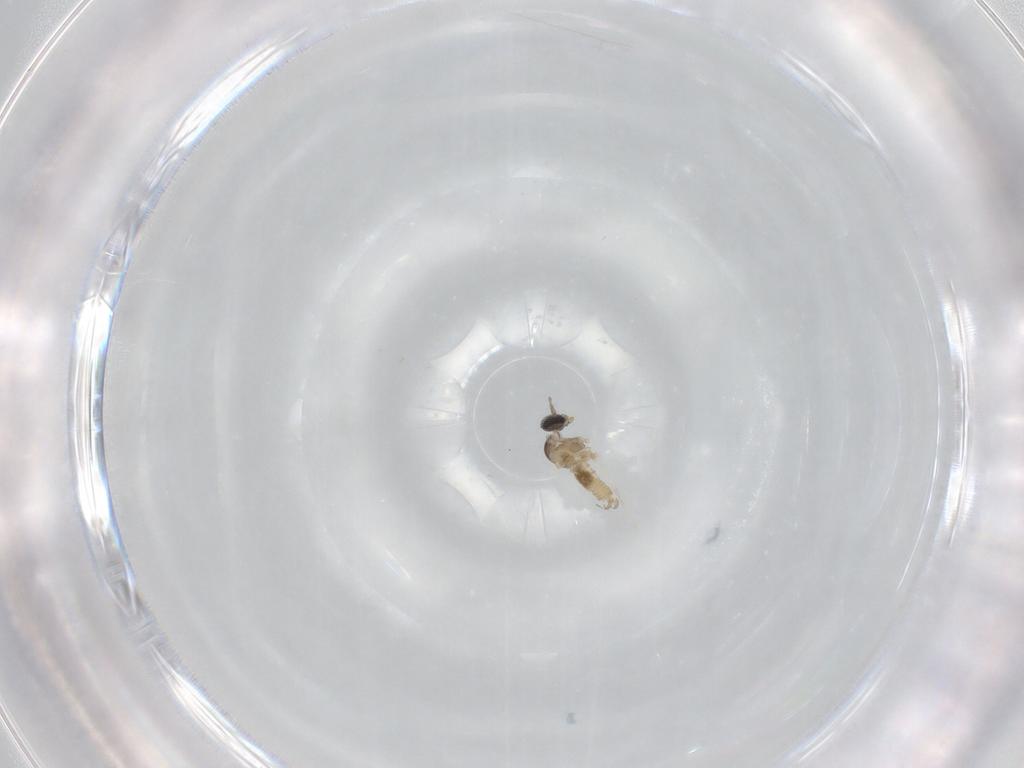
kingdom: Animalia
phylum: Arthropoda
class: Insecta
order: Diptera
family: Cecidomyiidae
